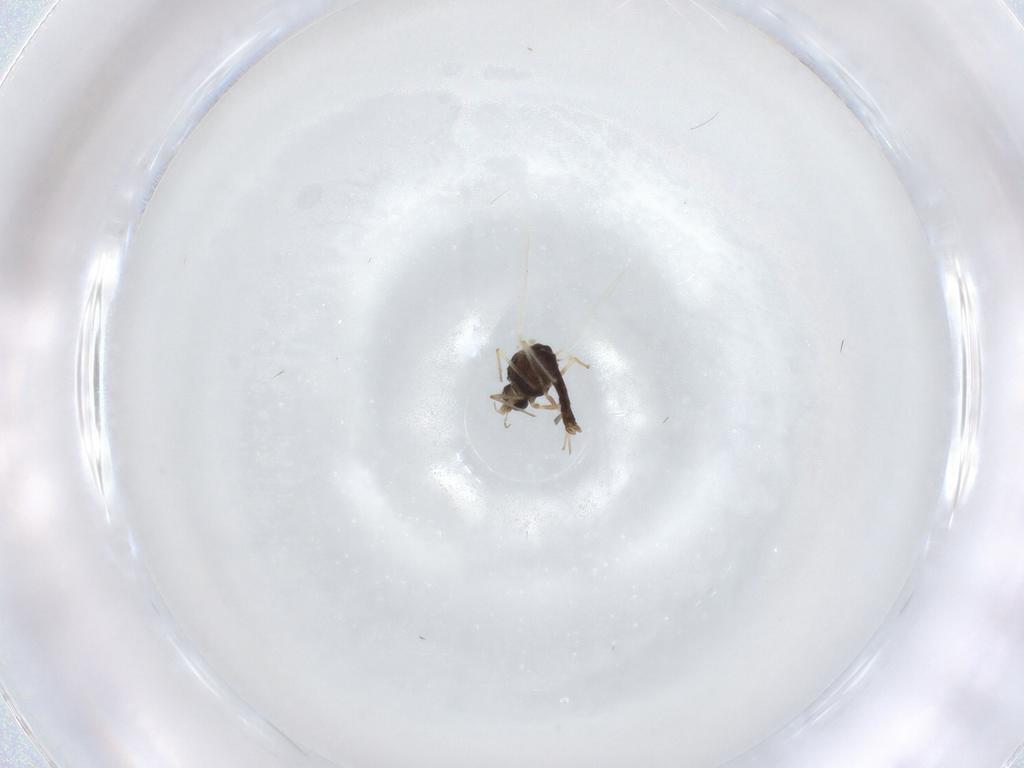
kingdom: Animalia
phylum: Arthropoda
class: Insecta
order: Diptera
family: Chironomidae
